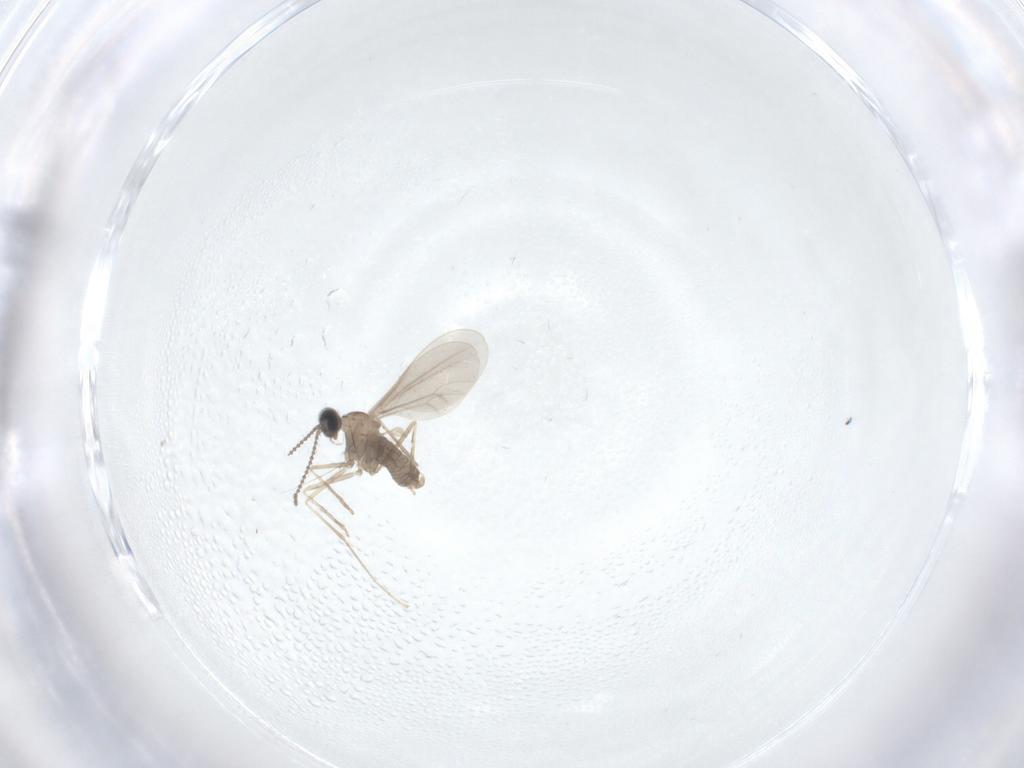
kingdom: Animalia
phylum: Arthropoda
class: Insecta
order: Diptera
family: Cecidomyiidae
